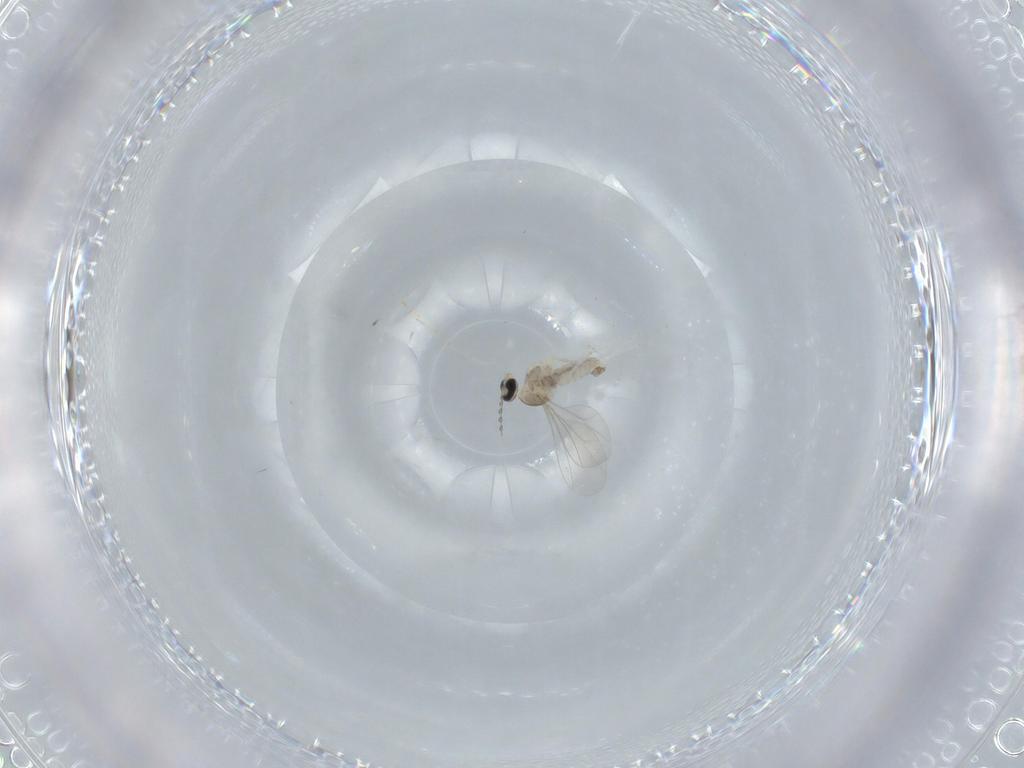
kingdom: Animalia
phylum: Arthropoda
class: Insecta
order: Diptera
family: Cecidomyiidae
